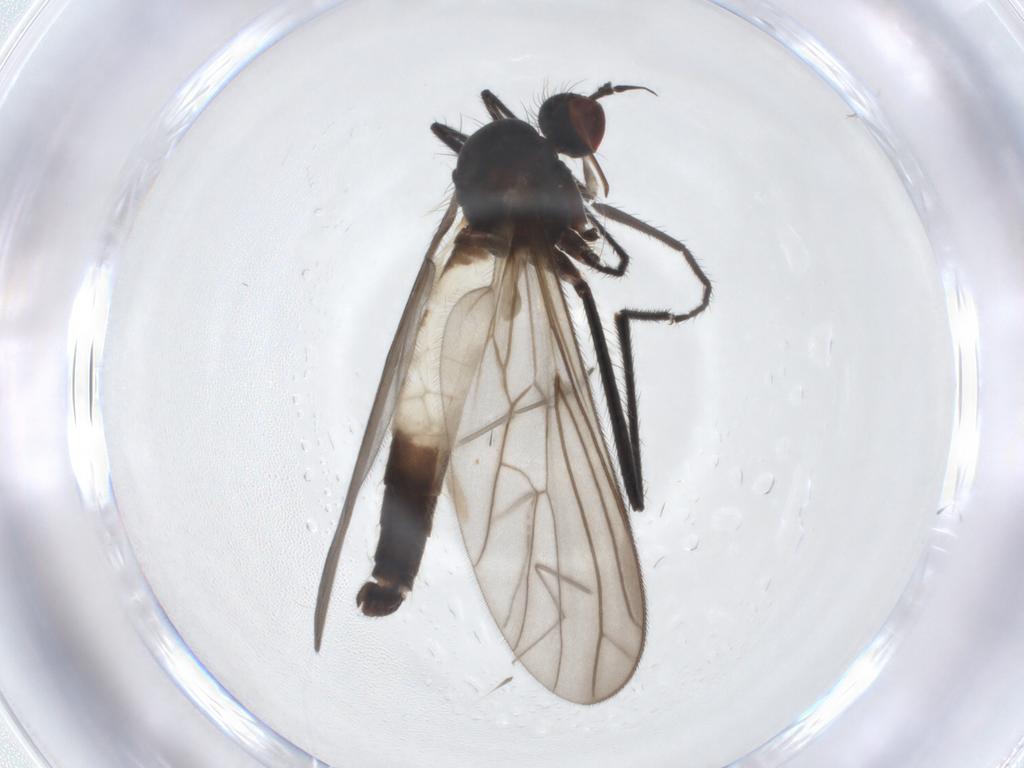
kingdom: Animalia
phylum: Arthropoda
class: Insecta
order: Diptera
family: Empididae
